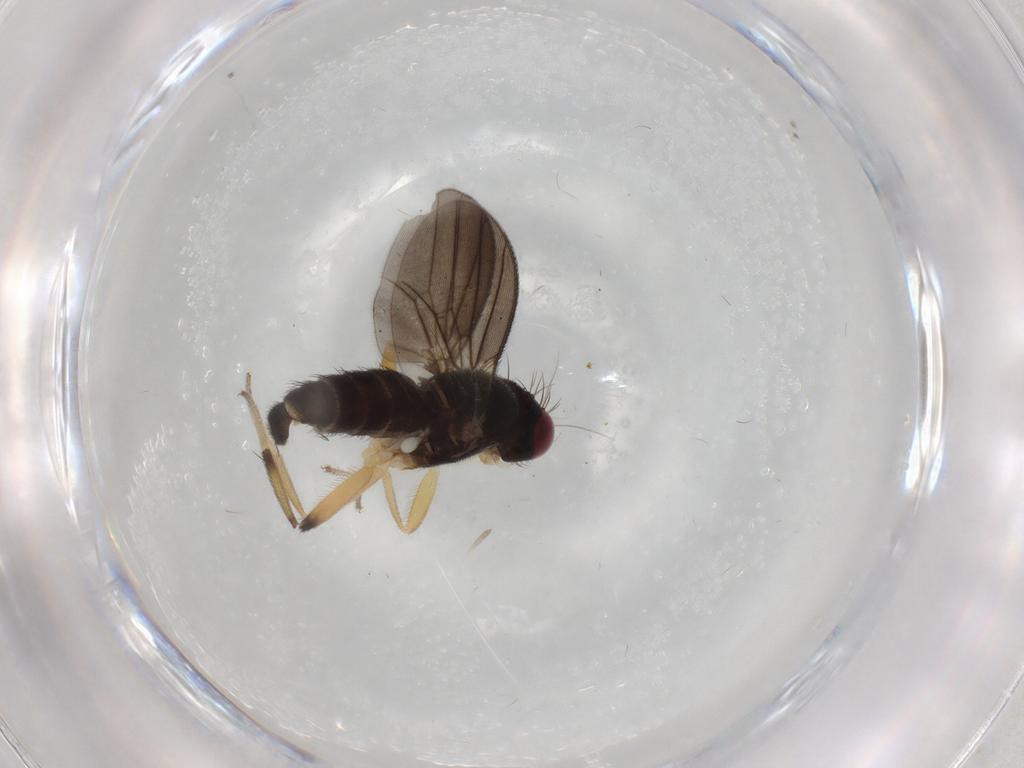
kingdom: Animalia
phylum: Arthropoda
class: Insecta
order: Diptera
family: Clusiidae
